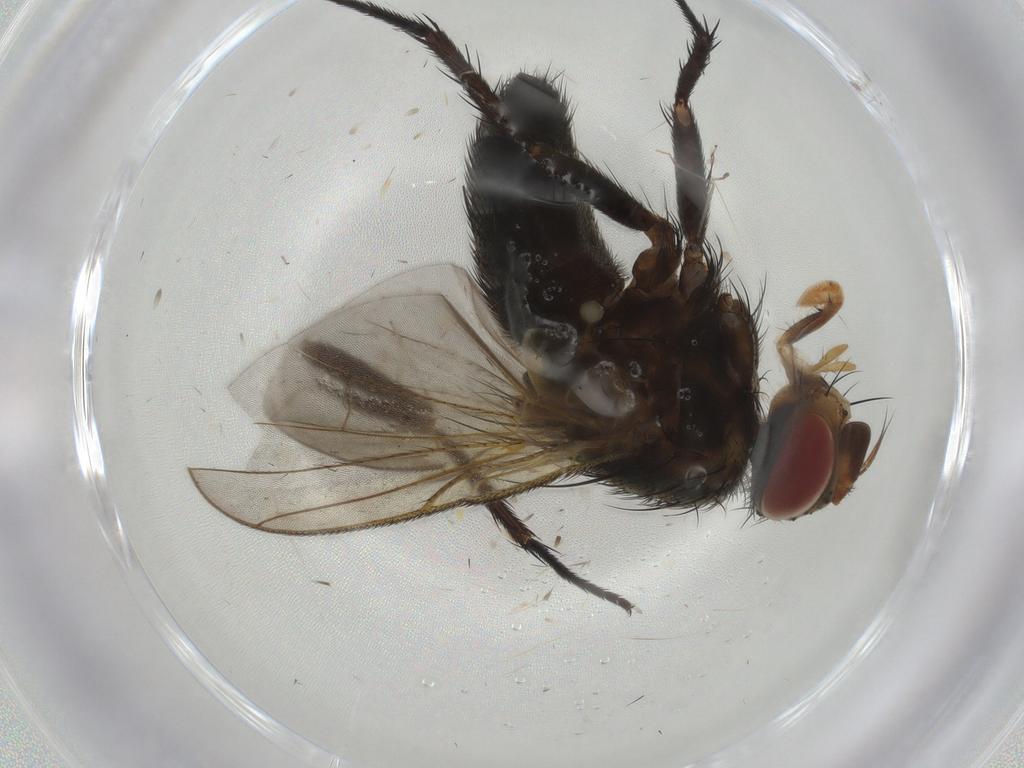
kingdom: Animalia
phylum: Arthropoda
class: Insecta
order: Diptera
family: Tachinidae
